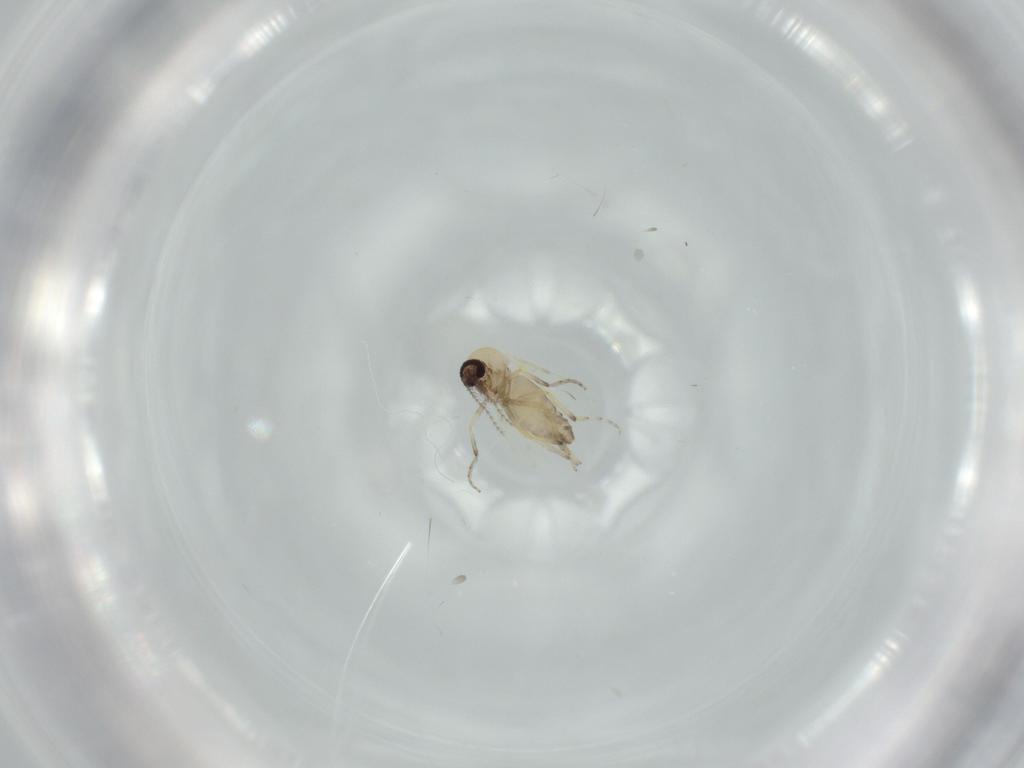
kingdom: Animalia
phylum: Arthropoda
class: Insecta
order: Diptera
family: Ceratopogonidae
